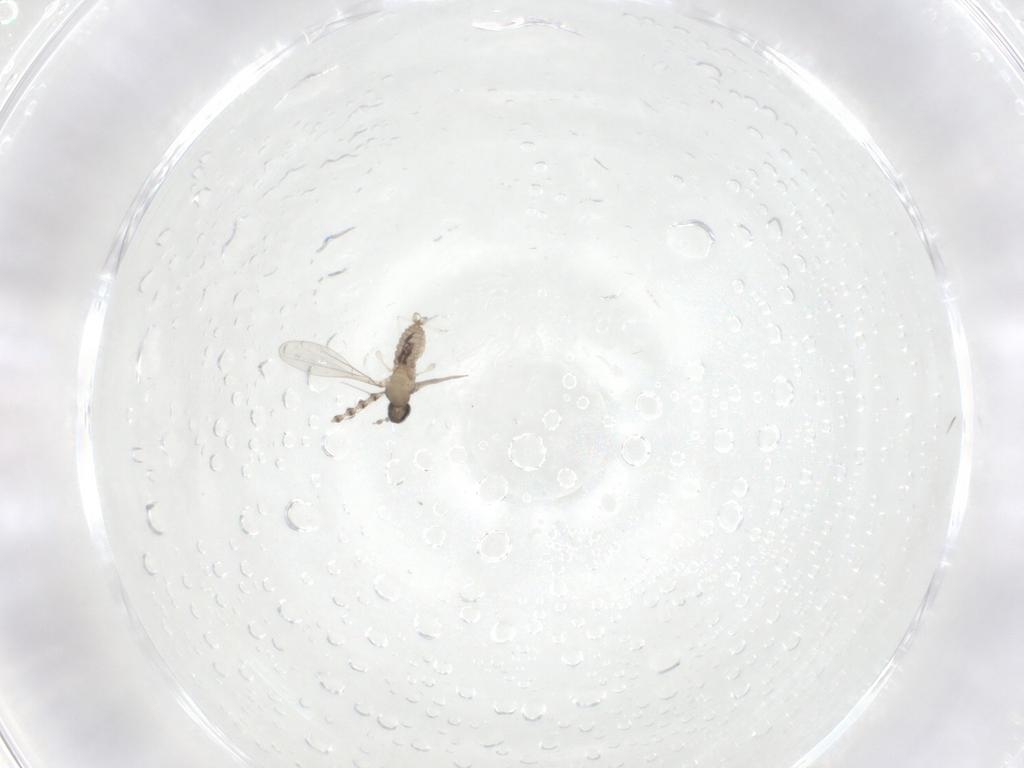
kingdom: Animalia
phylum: Arthropoda
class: Insecta
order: Diptera
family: Cecidomyiidae
